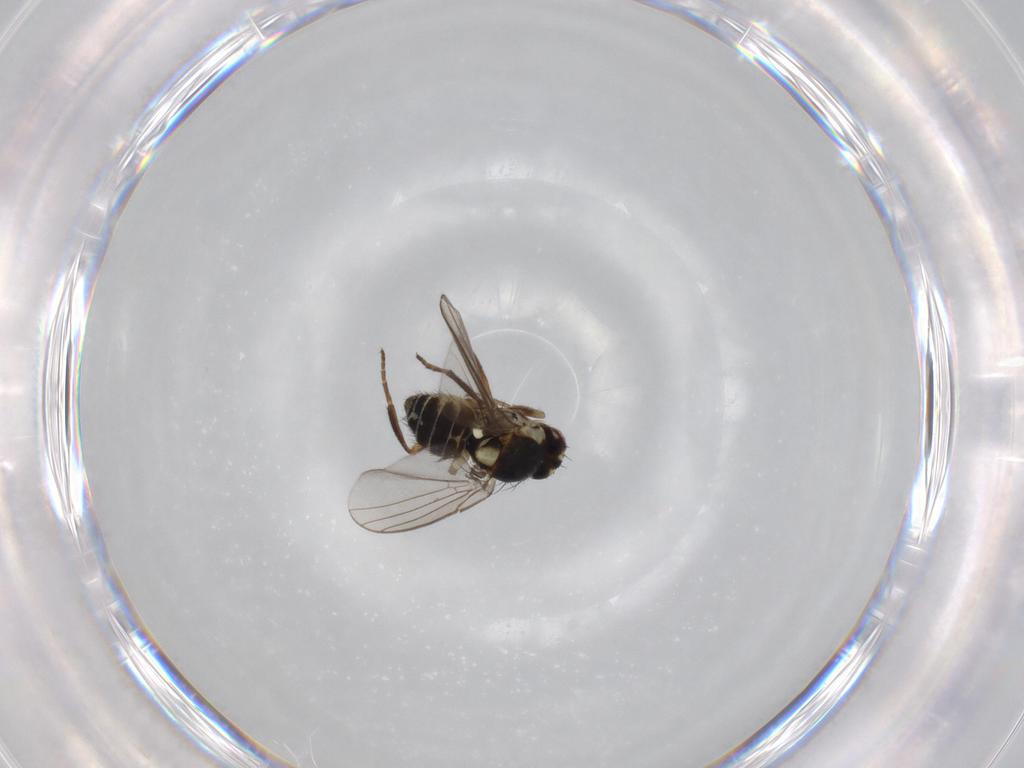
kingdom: Animalia
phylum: Arthropoda
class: Insecta
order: Diptera
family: Agromyzidae
